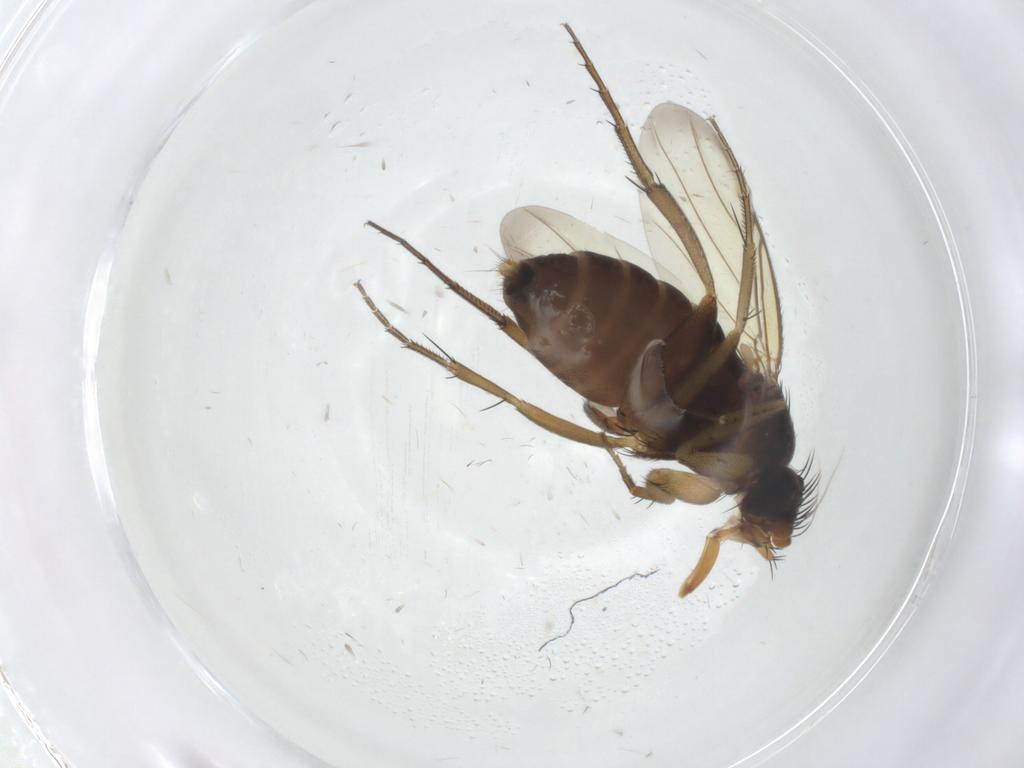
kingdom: Animalia
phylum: Arthropoda
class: Insecta
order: Diptera
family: Phoridae
